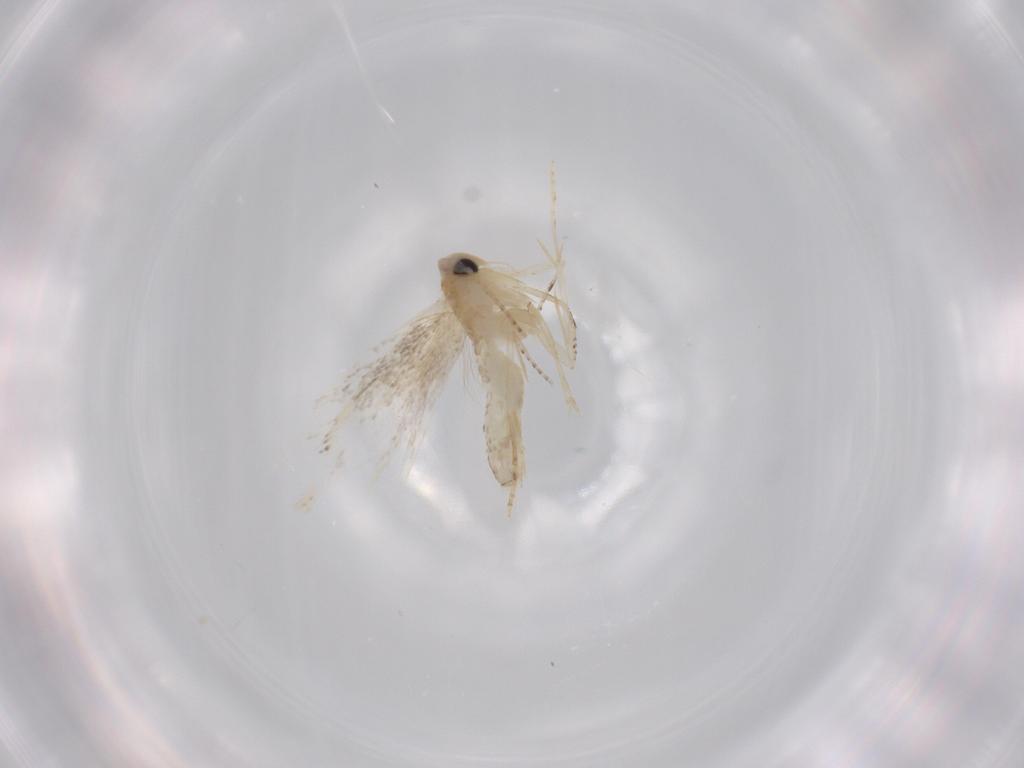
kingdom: Animalia
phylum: Arthropoda
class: Insecta
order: Lepidoptera
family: Bucculatricidae
